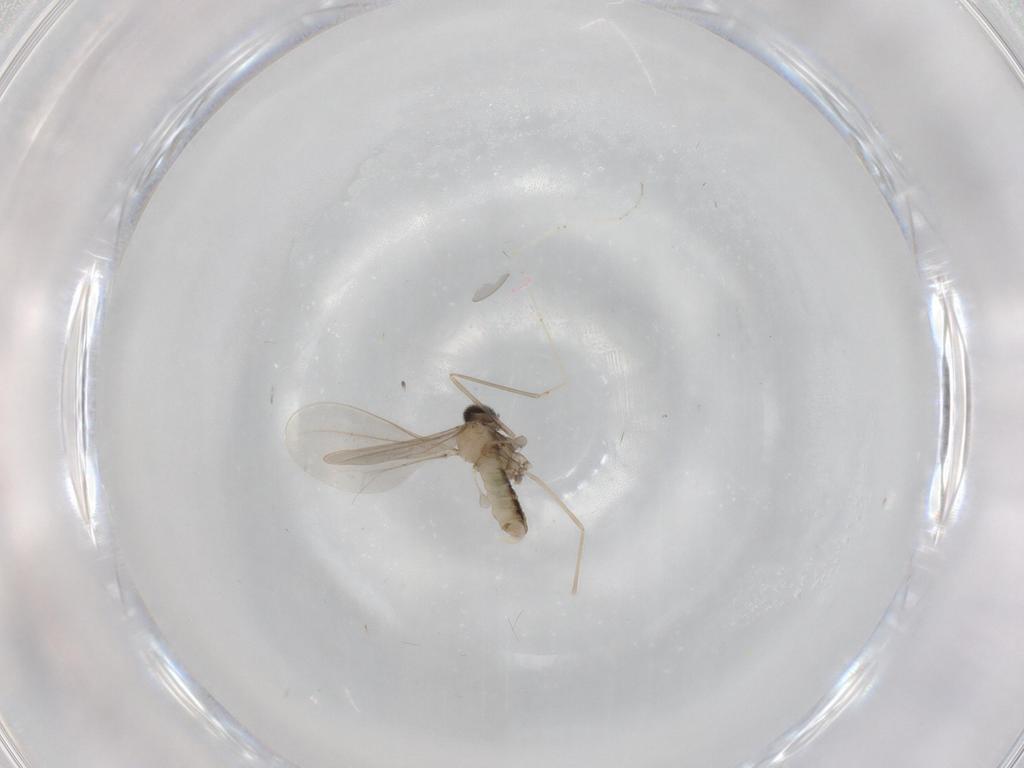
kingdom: Animalia
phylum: Arthropoda
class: Insecta
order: Diptera
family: Cecidomyiidae
